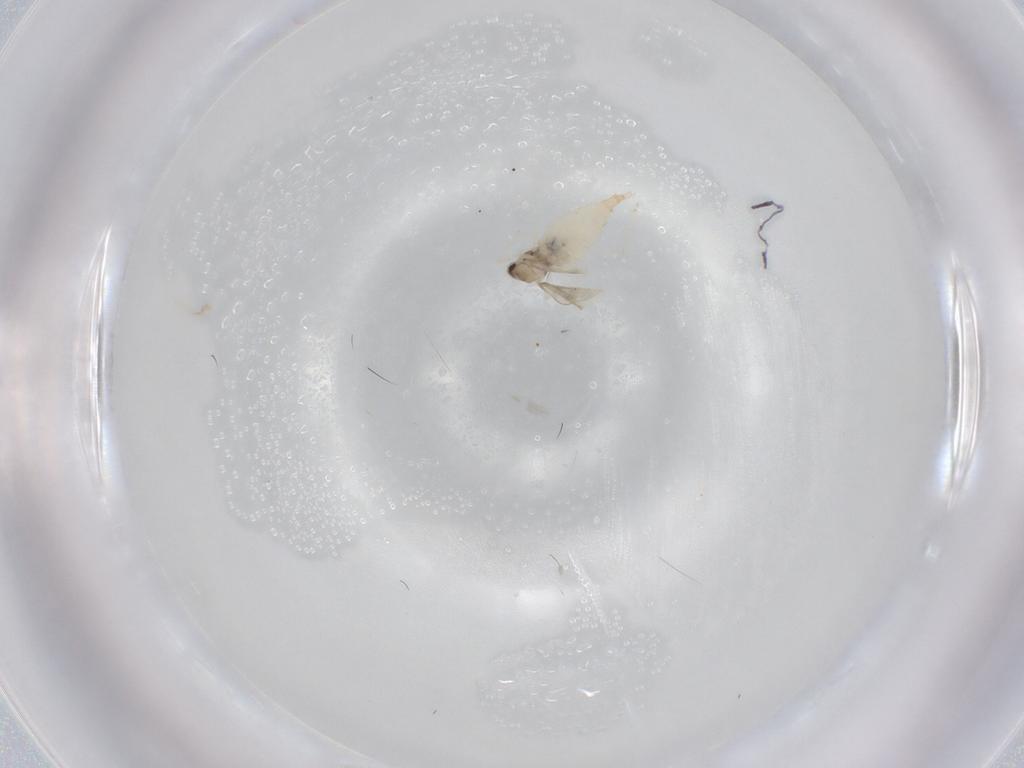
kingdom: Animalia
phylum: Arthropoda
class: Insecta
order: Diptera
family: Cecidomyiidae
